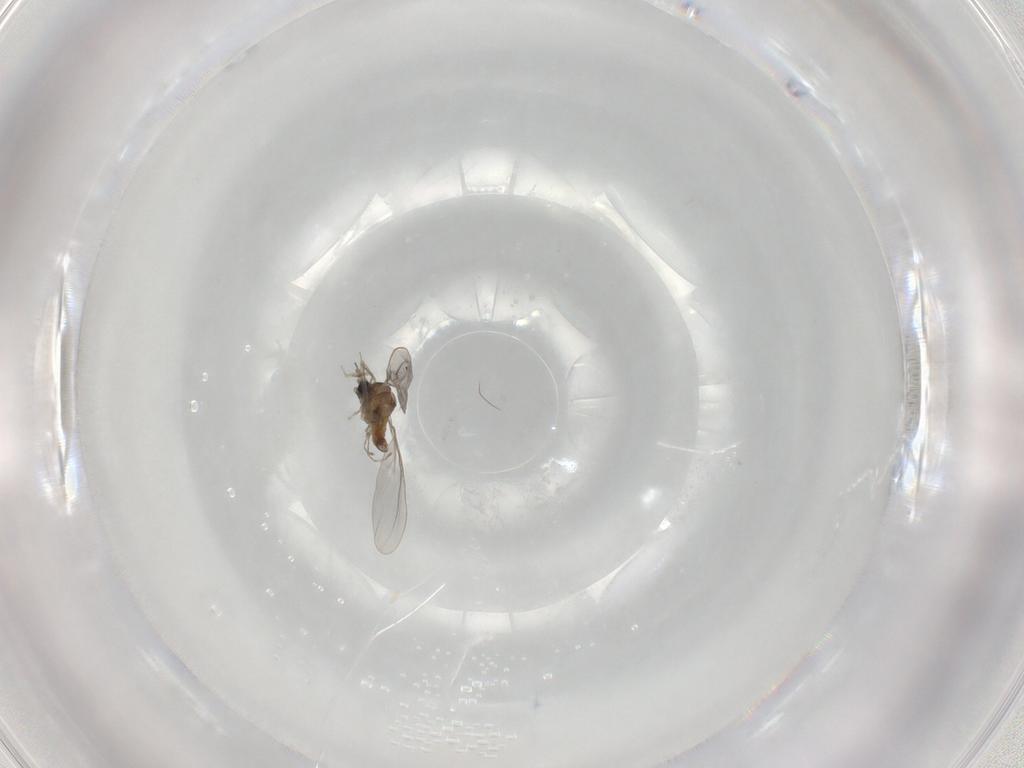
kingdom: Animalia
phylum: Arthropoda
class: Insecta
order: Diptera
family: Cecidomyiidae
